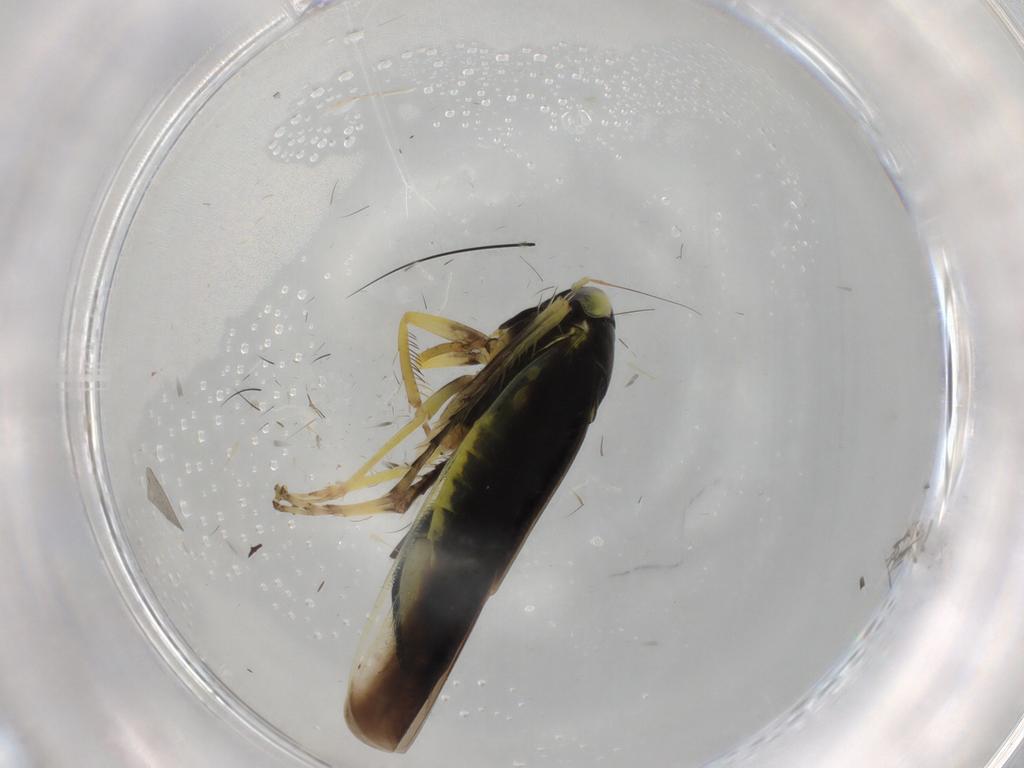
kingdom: Animalia
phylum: Arthropoda
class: Insecta
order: Hemiptera
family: Cicadellidae
